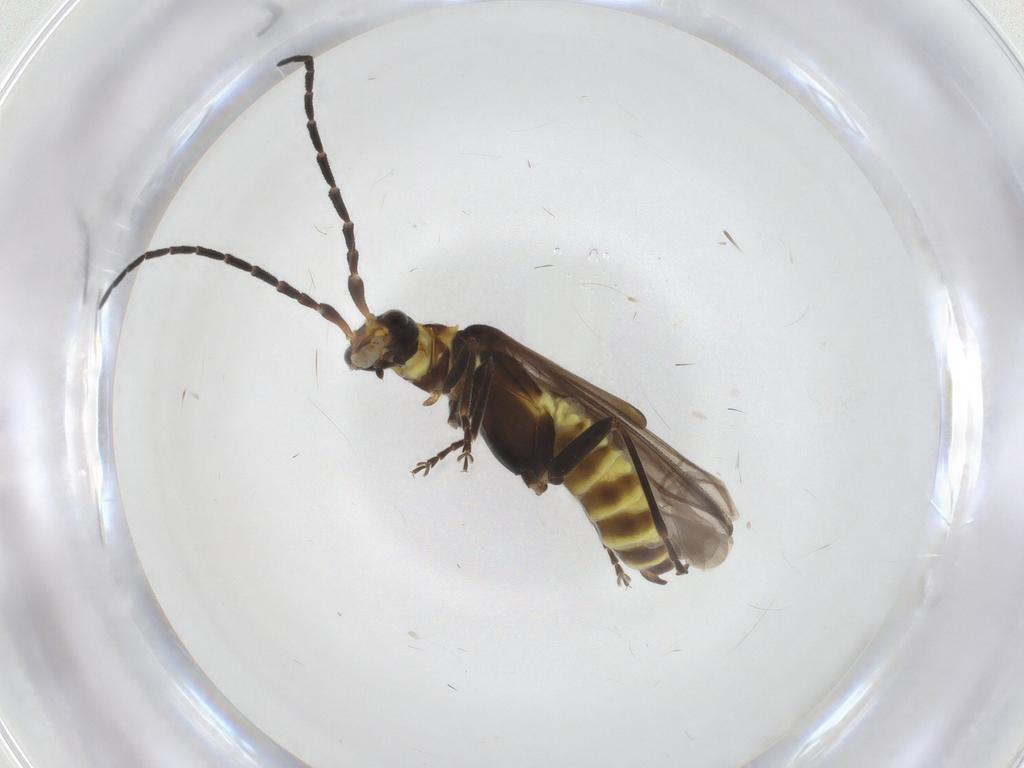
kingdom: Animalia
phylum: Arthropoda
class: Insecta
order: Coleoptera
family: Cantharidae
